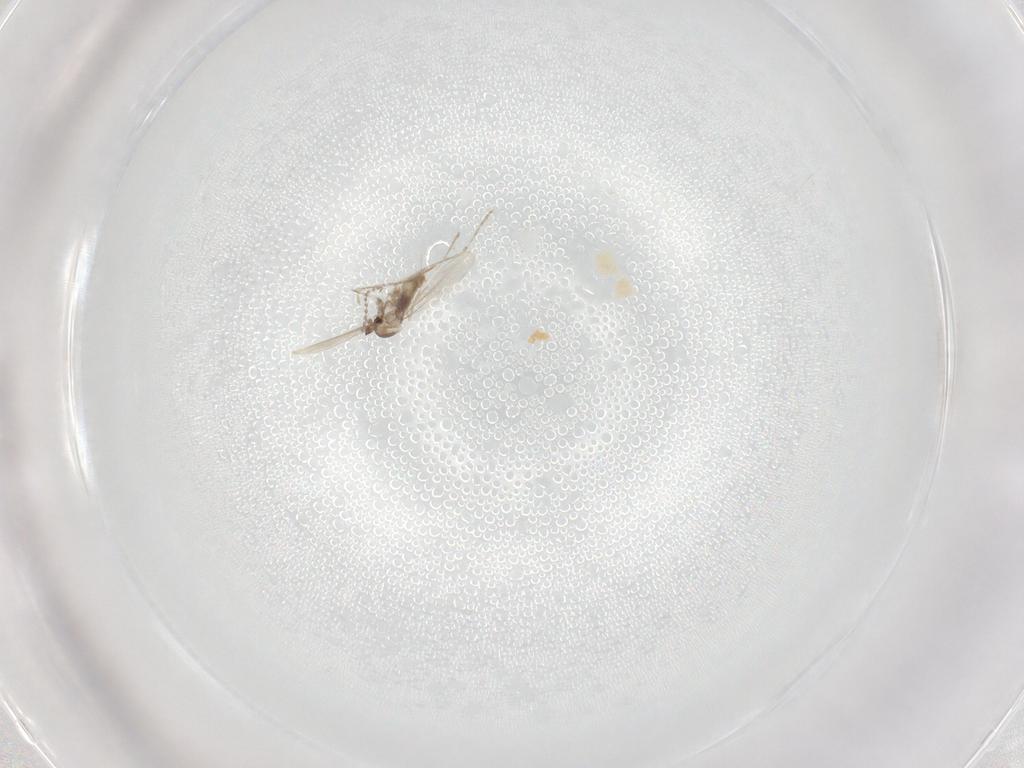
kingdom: Animalia
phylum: Arthropoda
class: Insecta
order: Diptera
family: Cecidomyiidae
